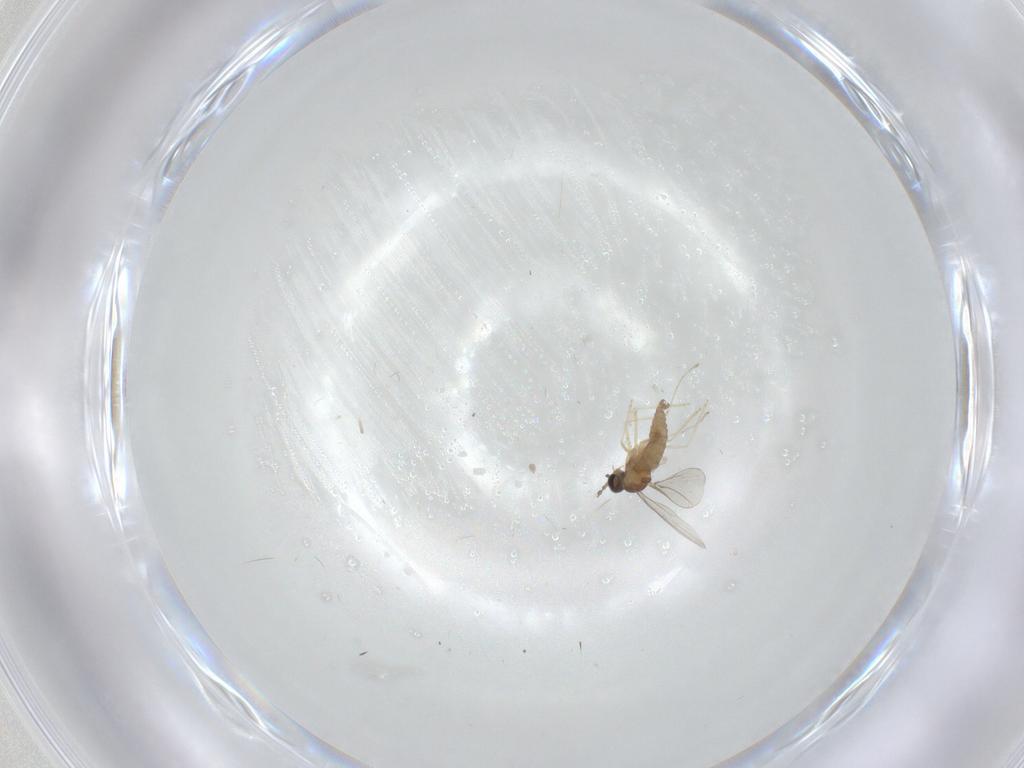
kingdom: Animalia
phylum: Arthropoda
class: Insecta
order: Diptera
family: Cecidomyiidae
